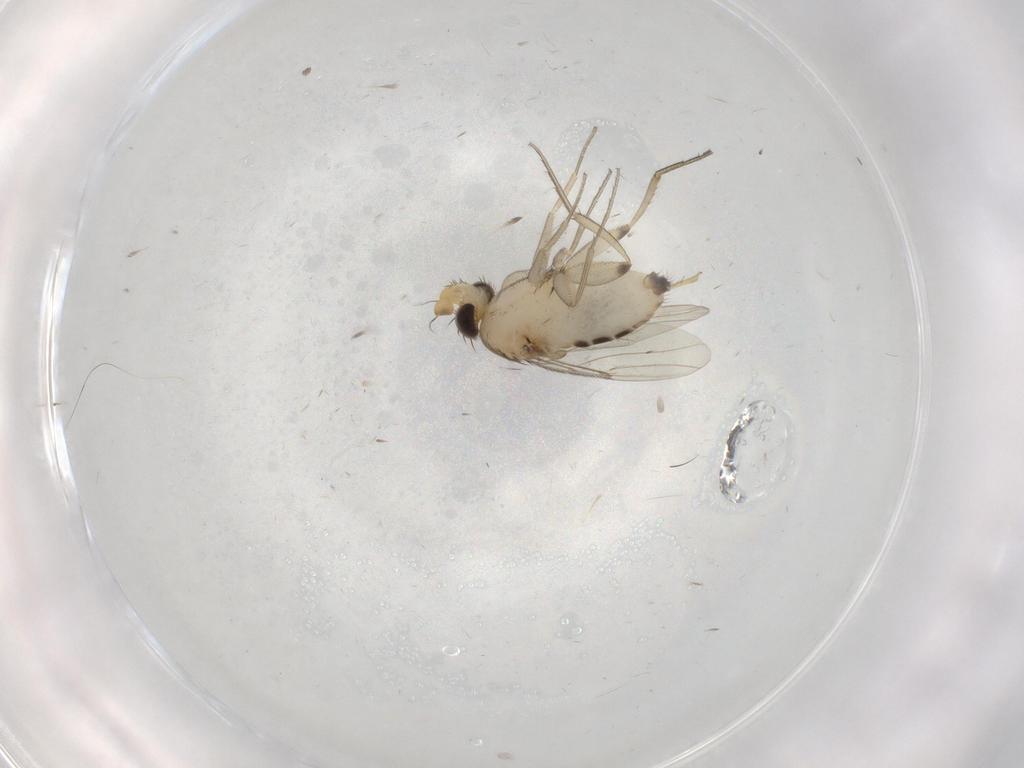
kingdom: Animalia
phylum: Arthropoda
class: Insecta
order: Diptera
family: Phoridae
